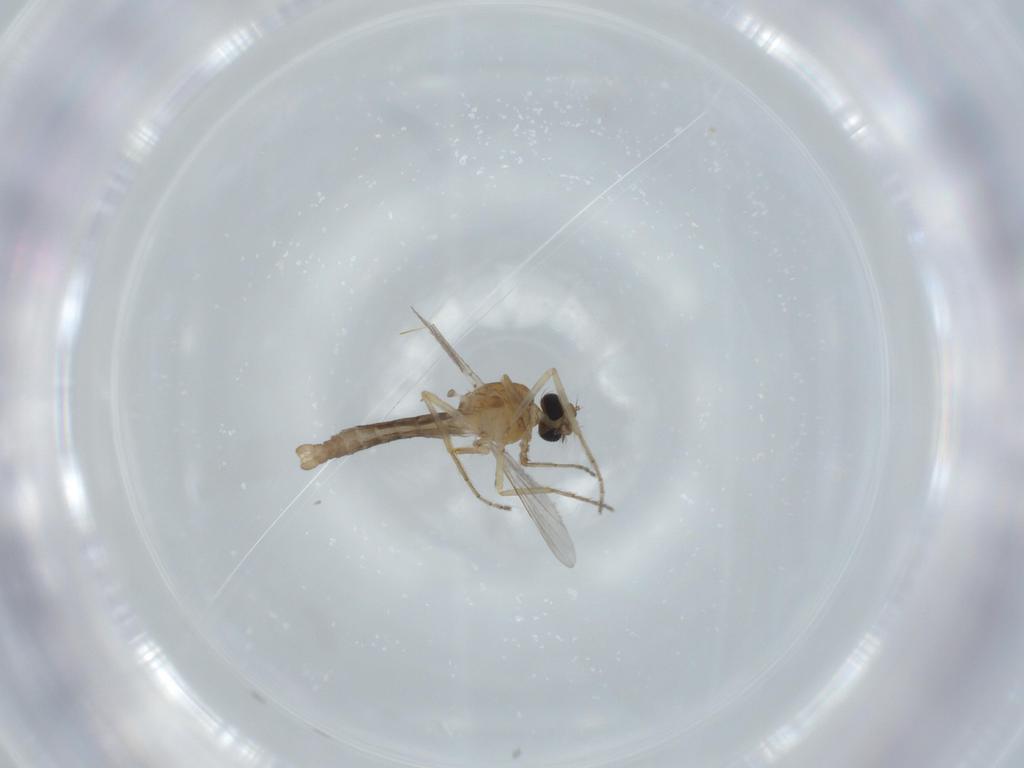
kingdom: Animalia
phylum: Arthropoda
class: Insecta
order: Diptera
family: Ceratopogonidae
